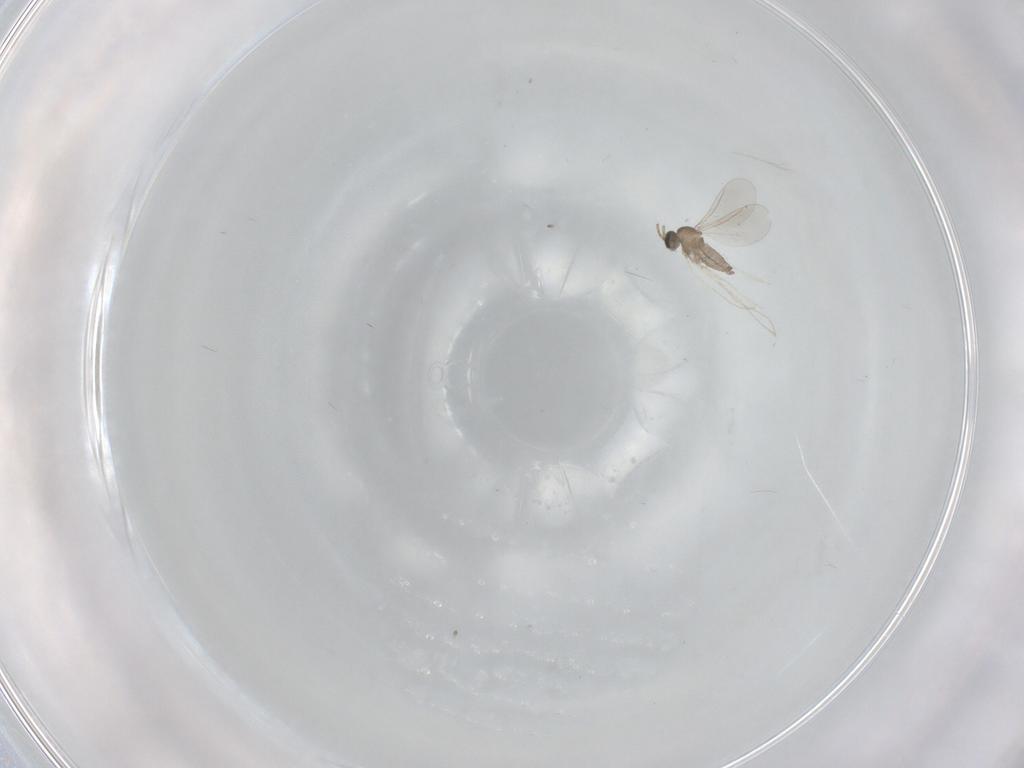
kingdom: Animalia
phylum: Arthropoda
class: Insecta
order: Diptera
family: Cecidomyiidae
